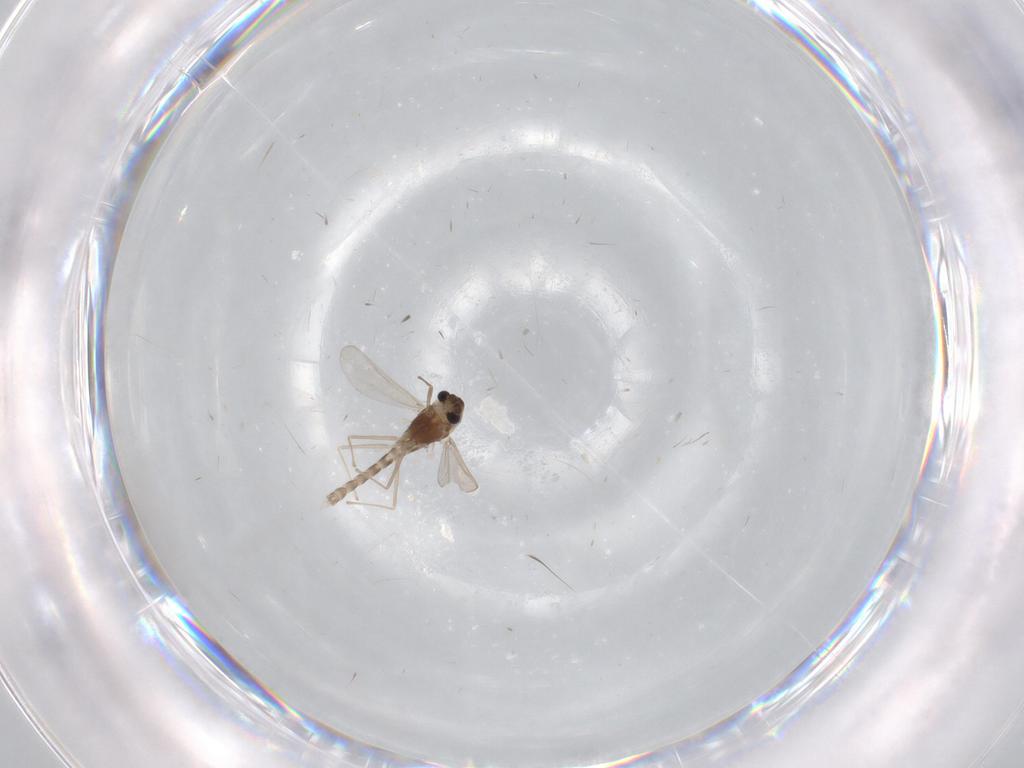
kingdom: Animalia
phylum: Arthropoda
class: Insecta
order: Diptera
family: Chironomidae
